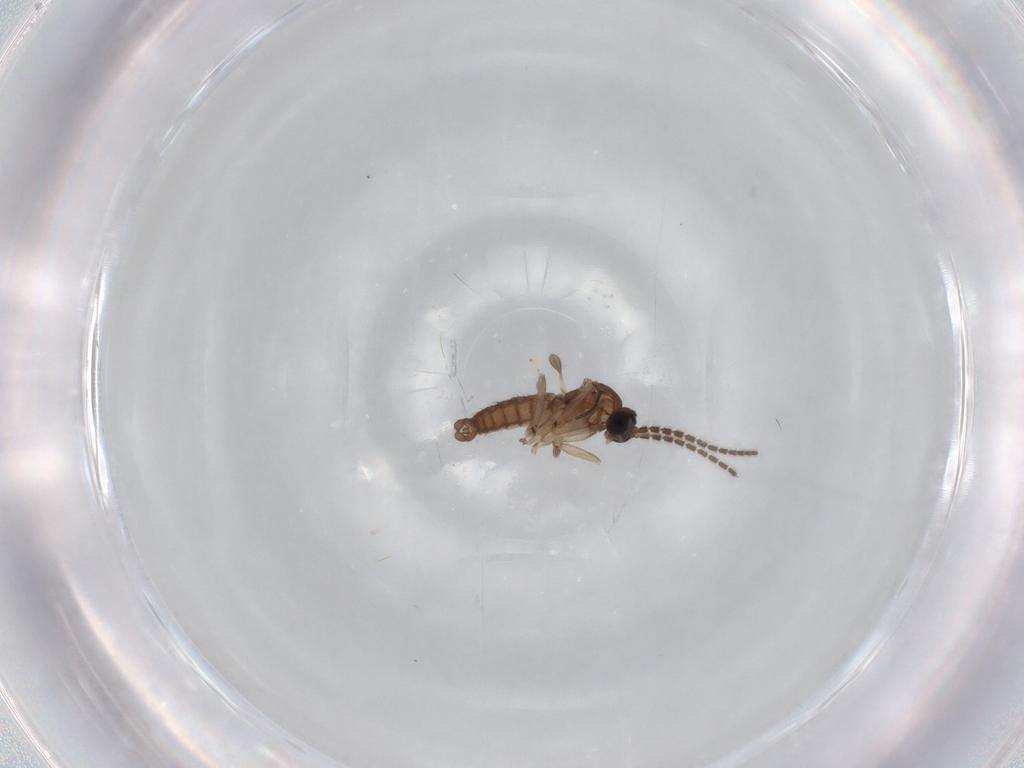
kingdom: Animalia
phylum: Arthropoda
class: Insecta
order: Diptera
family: Sciaridae
